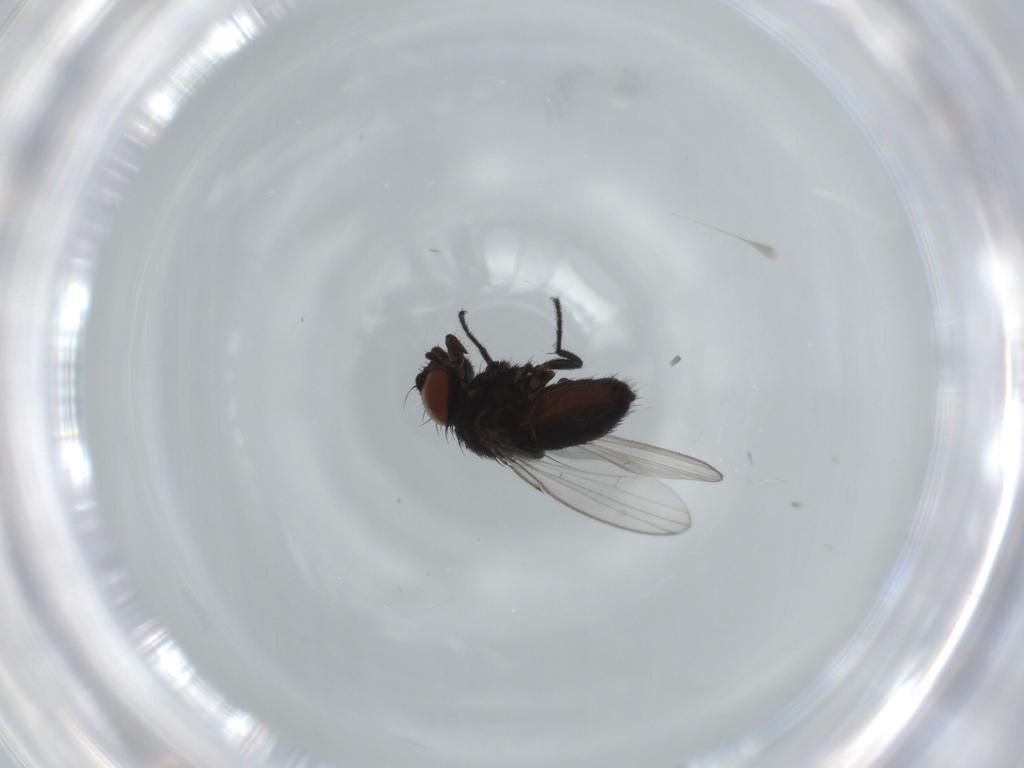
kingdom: Animalia
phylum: Arthropoda
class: Insecta
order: Diptera
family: Milichiidae
